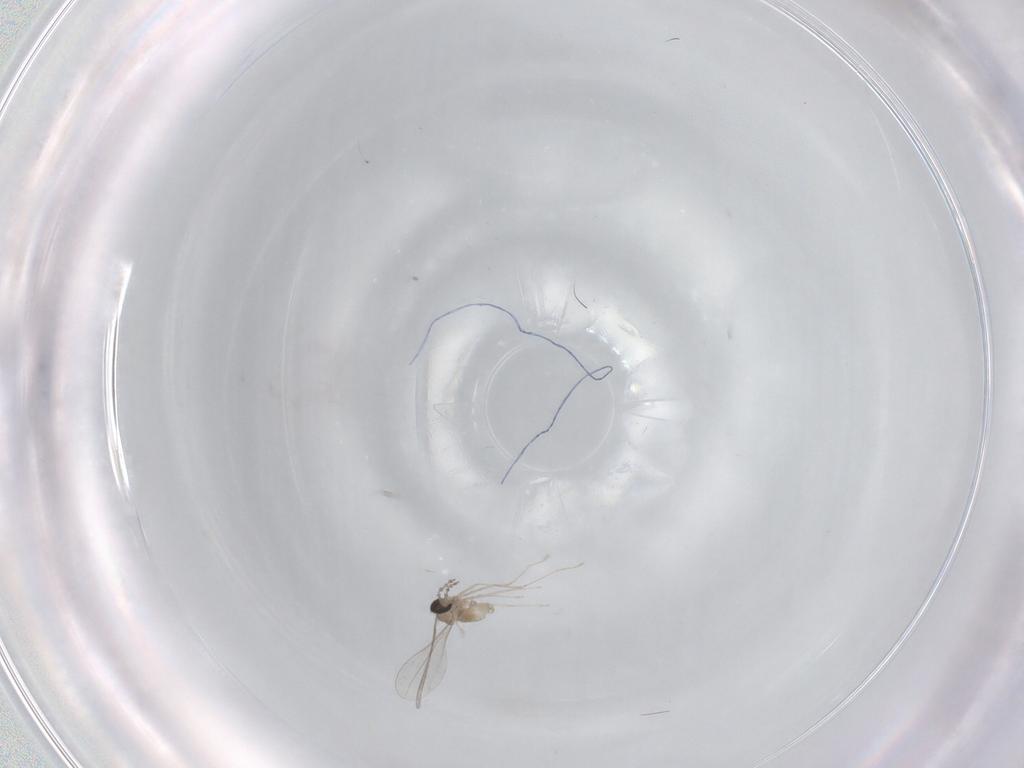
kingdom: Animalia
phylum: Arthropoda
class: Insecta
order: Diptera
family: Cecidomyiidae
